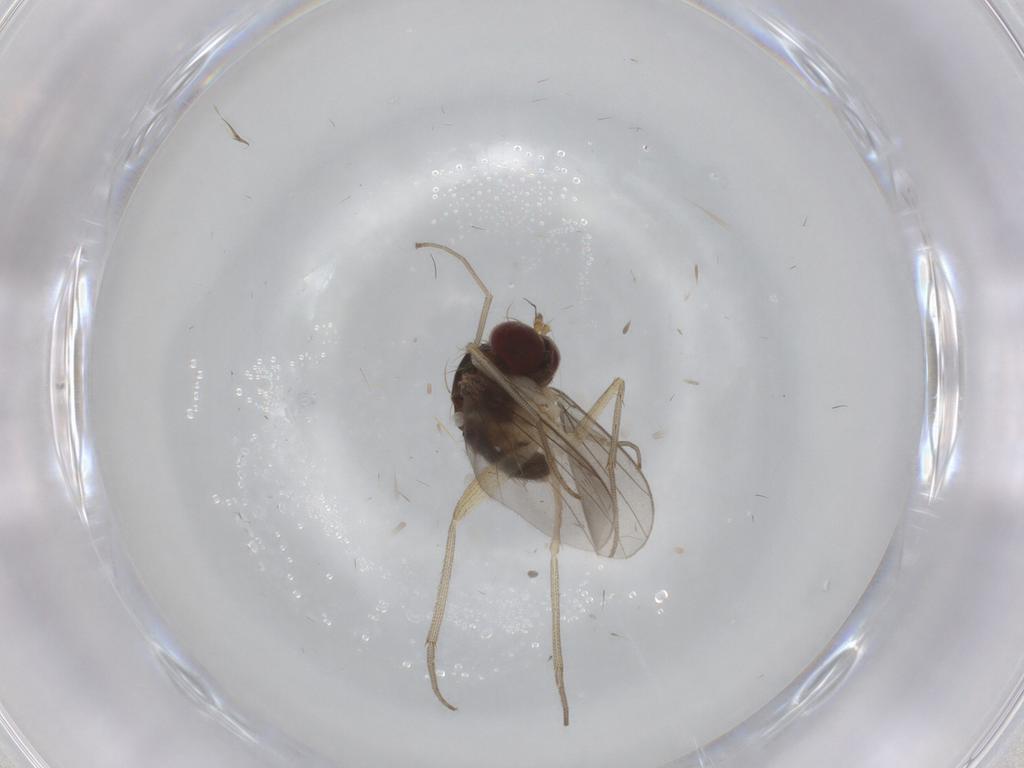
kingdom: Animalia
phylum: Arthropoda
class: Insecta
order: Diptera
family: Dolichopodidae
